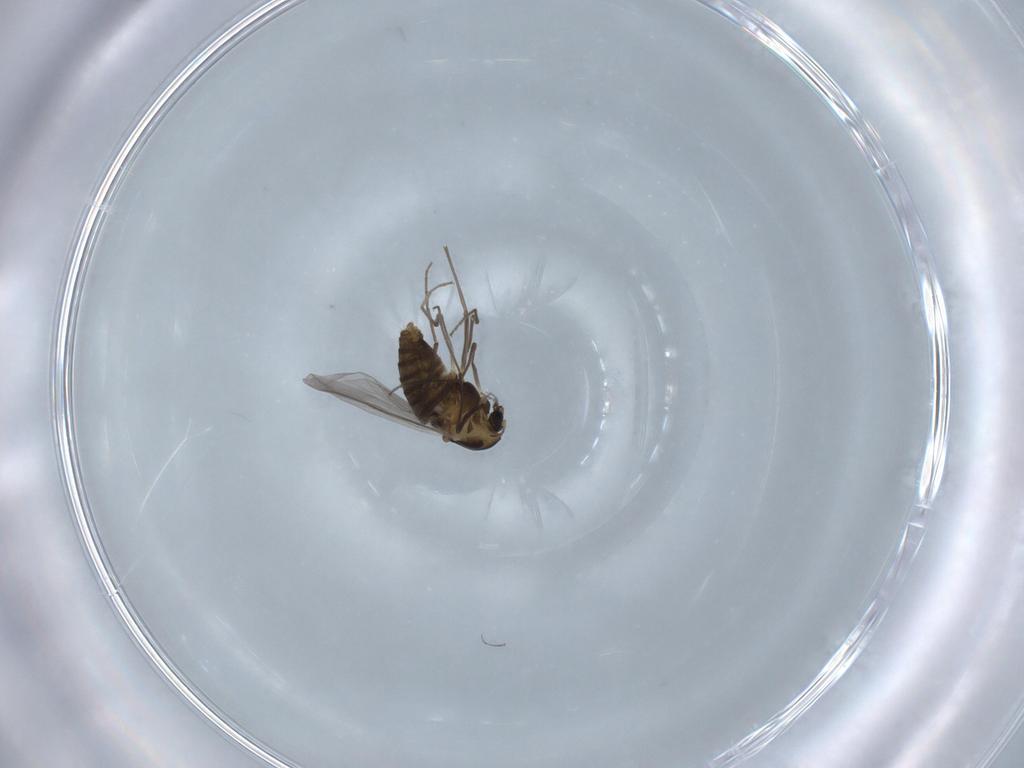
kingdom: Animalia
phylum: Arthropoda
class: Insecta
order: Diptera
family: Chironomidae
